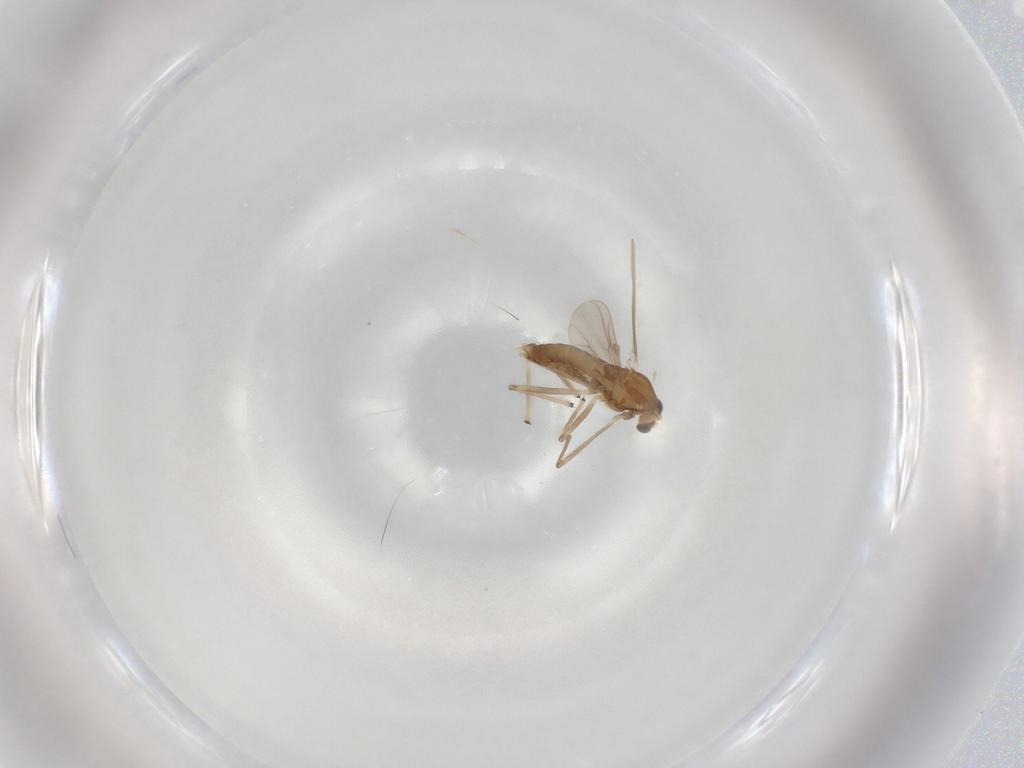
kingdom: Animalia
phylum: Arthropoda
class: Insecta
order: Diptera
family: Chironomidae
